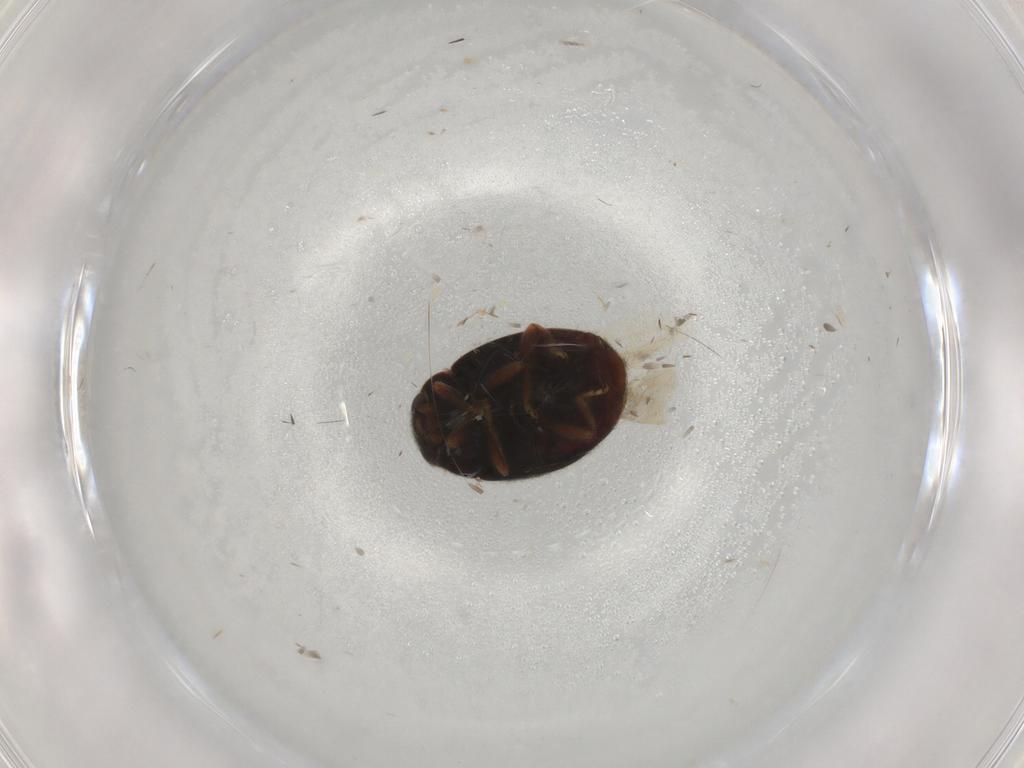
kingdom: Animalia
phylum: Arthropoda
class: Insecta
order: Coleoptera
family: Coccinellidae
